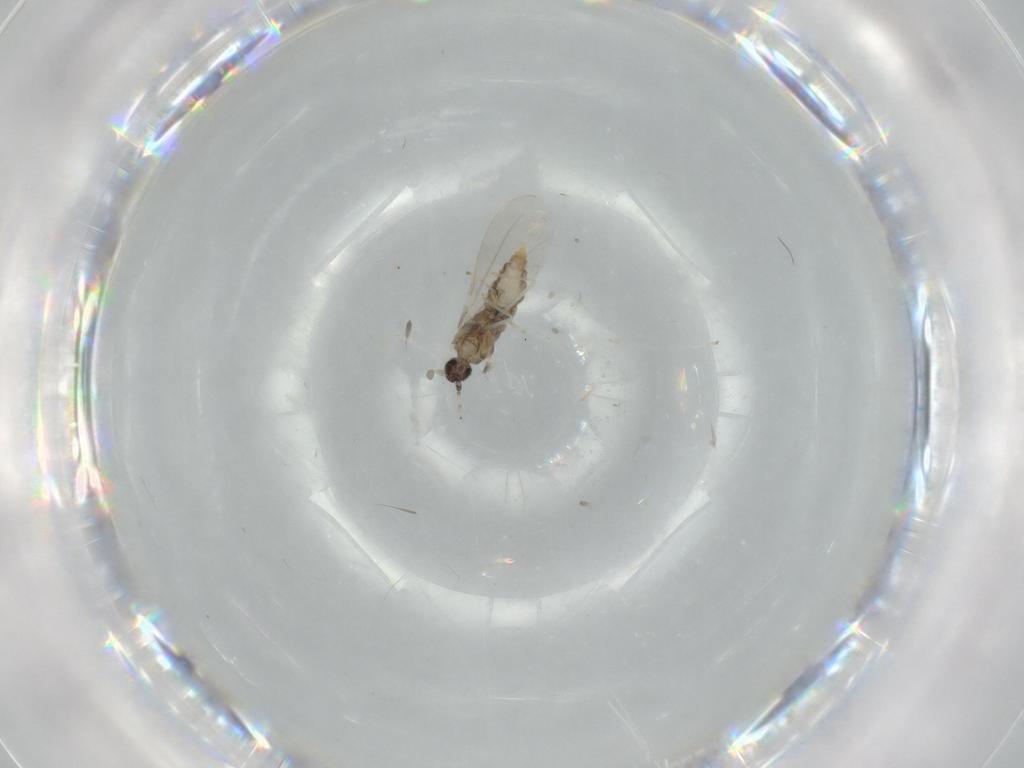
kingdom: Animalia
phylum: Arthropoda
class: Insecta
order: Diptera
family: Cecidomyiidae
